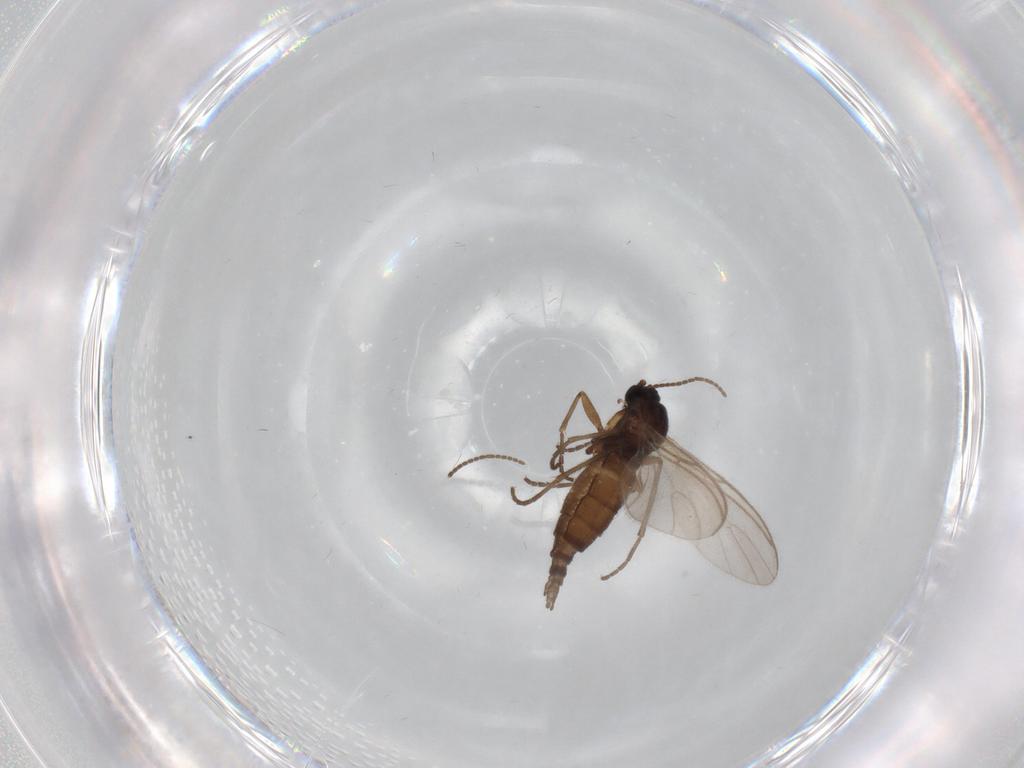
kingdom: Animalia
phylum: Arthropoda
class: Insecta
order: Diptera
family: Sciaridae
